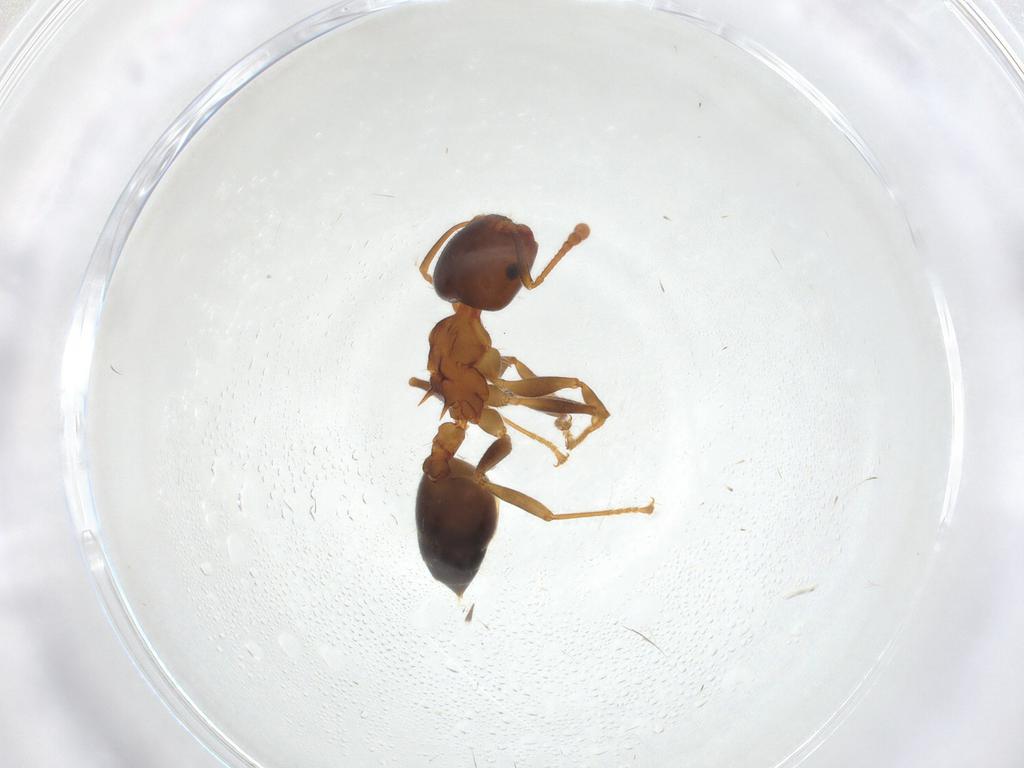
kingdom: Animalia
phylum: Arthropoda
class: Insecta
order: Hymenoptera
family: Formicidae
